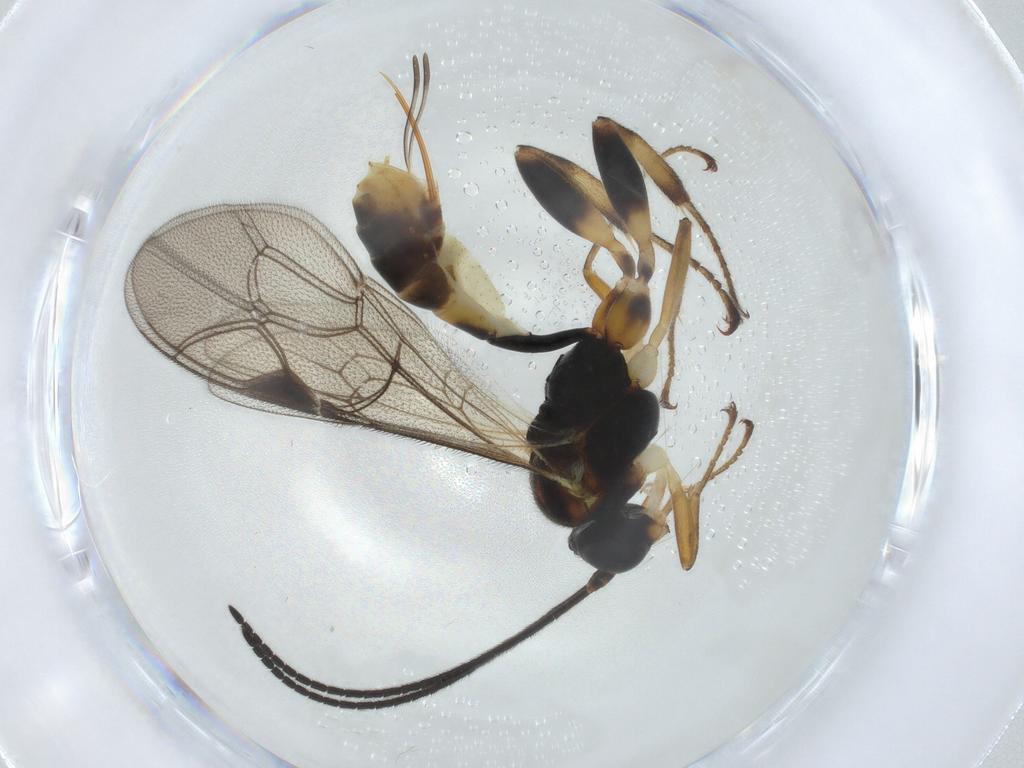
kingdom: Animalia
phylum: Arthropoda
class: Insecta
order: Hymenoptera
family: Ichneumonidae
